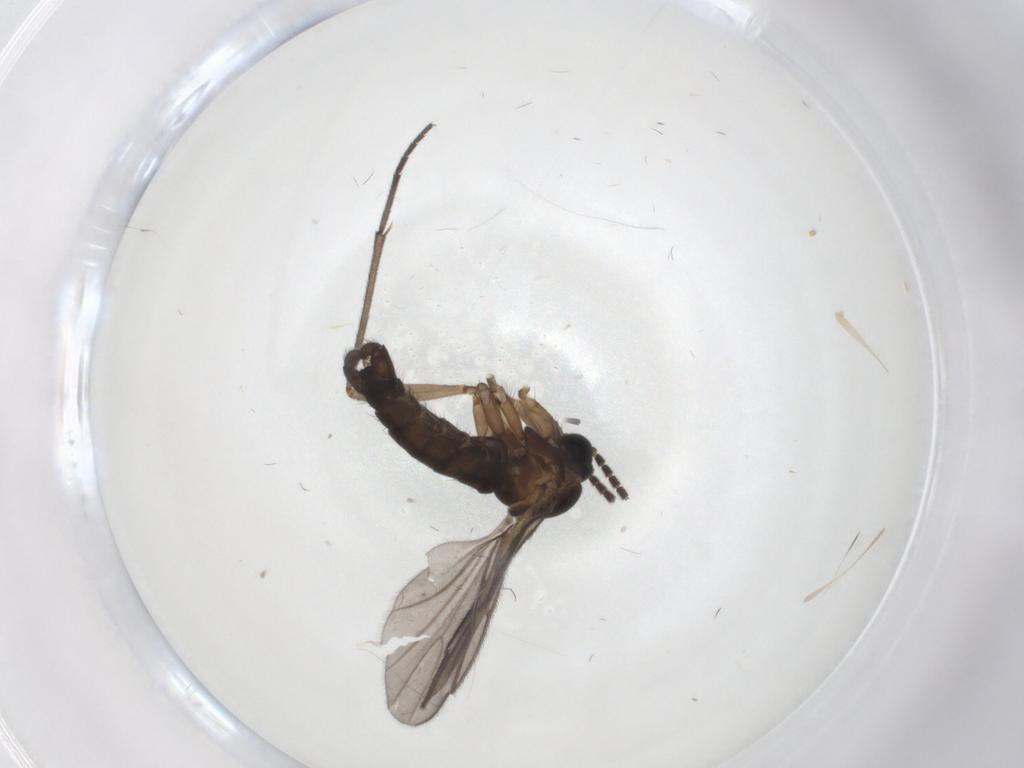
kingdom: Animalia
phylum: Arthropoda
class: Insecta
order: Diptera
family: Sciaridae
